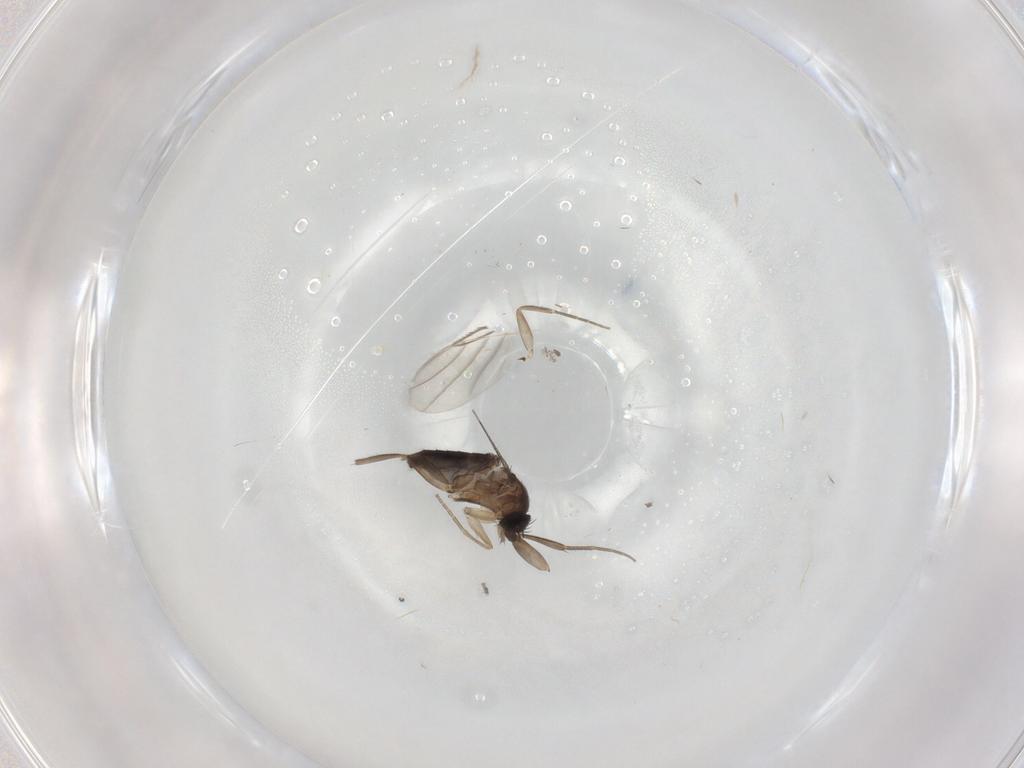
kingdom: Animalia
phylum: Arthropoda
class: Insecta
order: Diptera
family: Phoridae
